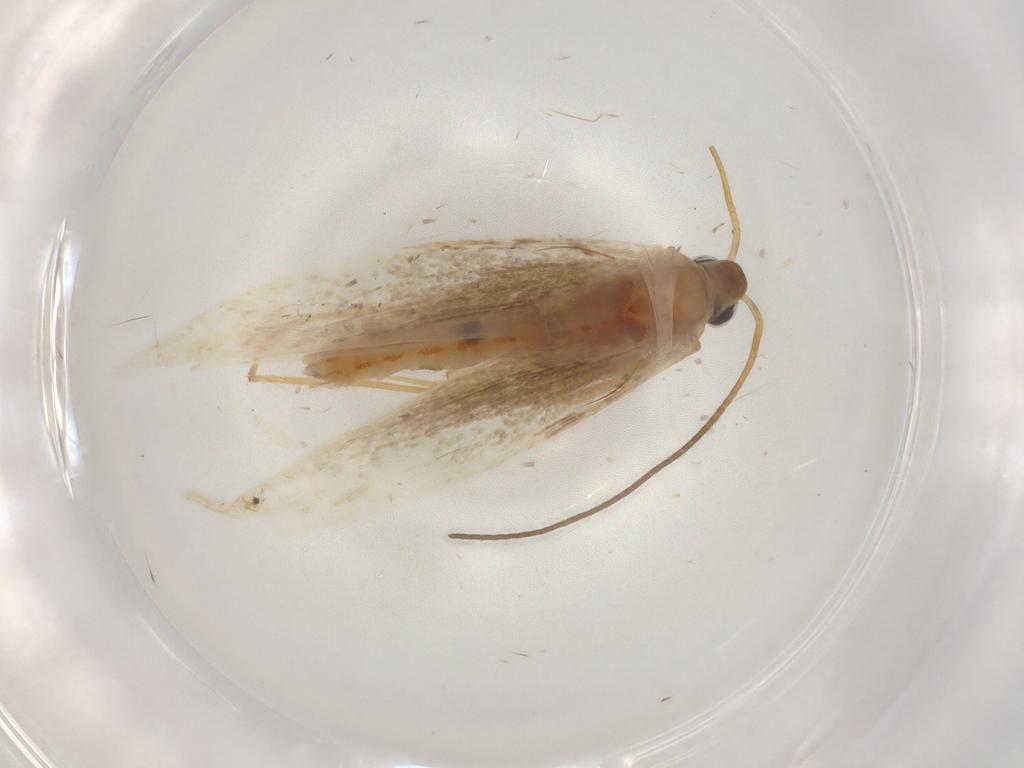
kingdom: Animalia
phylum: Arthropoda
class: Insecta
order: Lepidoptera
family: Coleophoridae
